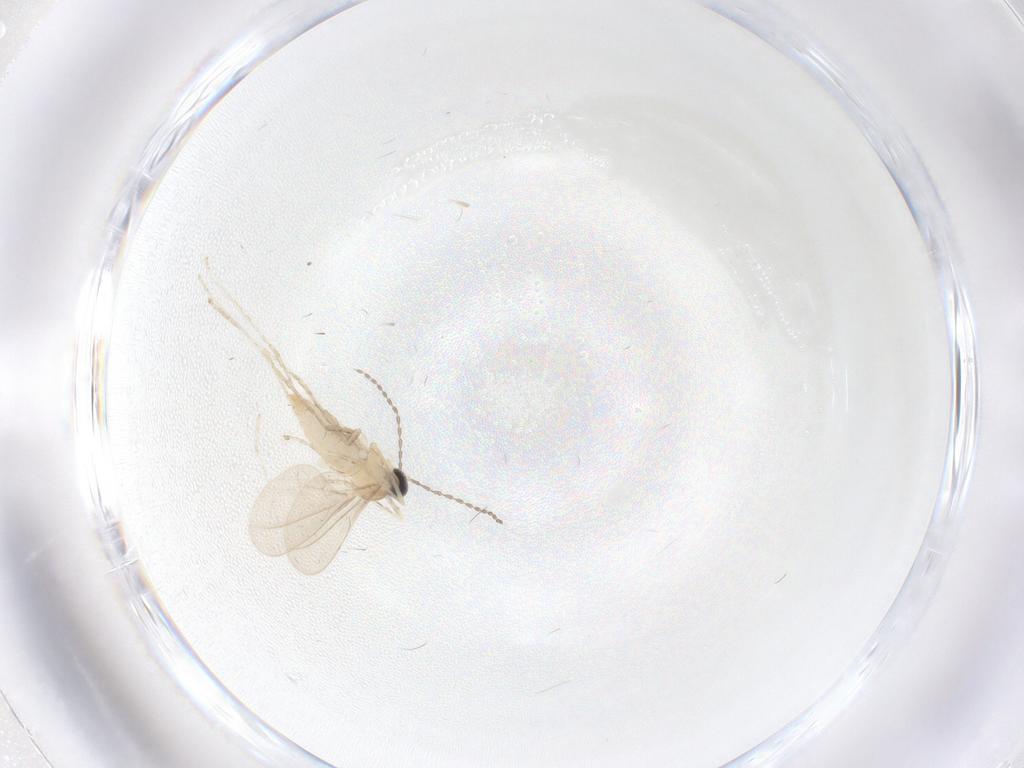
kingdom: Animalia
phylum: Arthropoda
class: Insecta
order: Diptera
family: Cecidomyiidae
